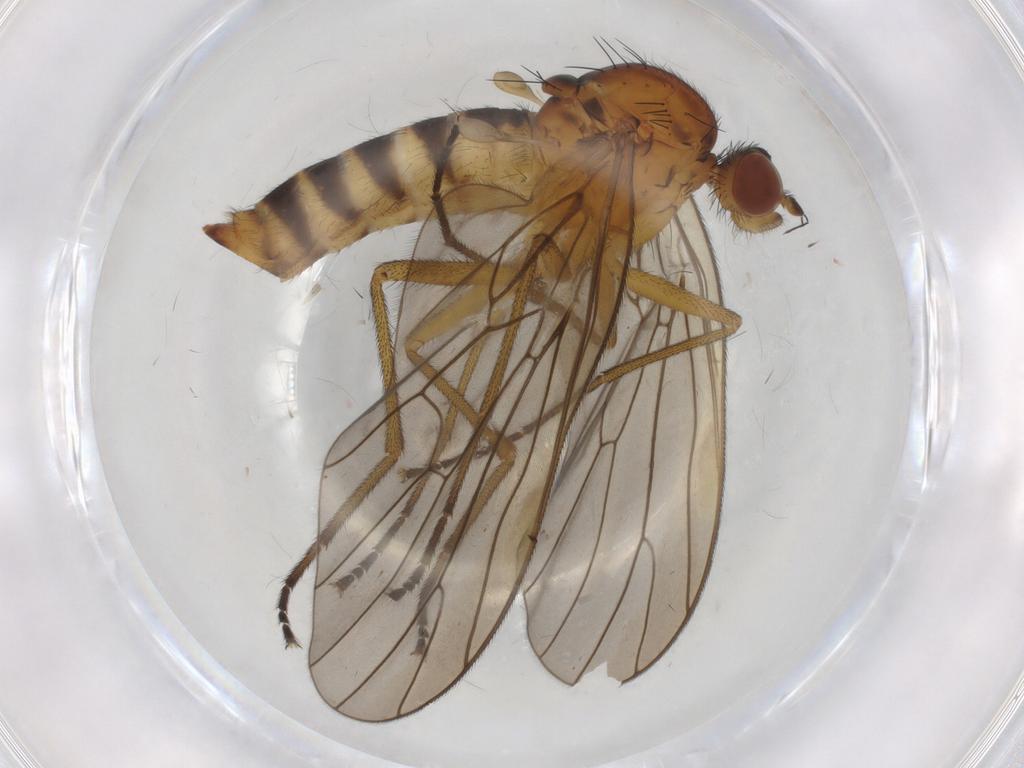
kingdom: Animalia
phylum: Arthropoda
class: Insecta
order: Diptera
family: Brachystomatidae
